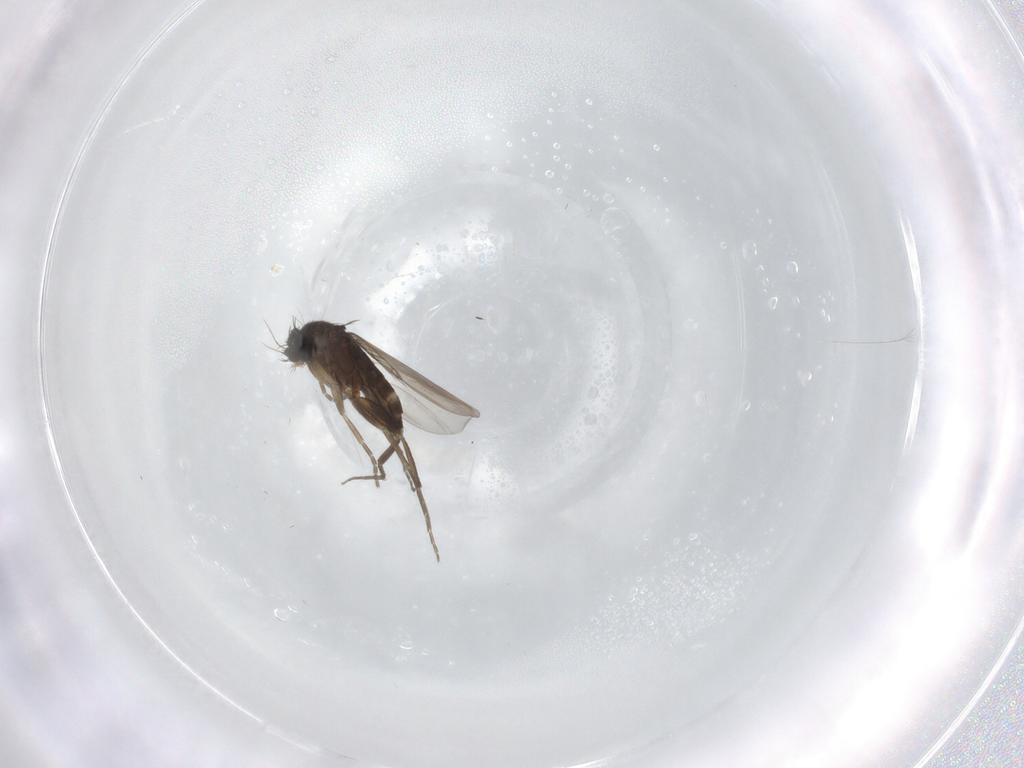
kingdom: Animalia
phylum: Arthropoda
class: Insecta
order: Diptera
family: Phoridae
